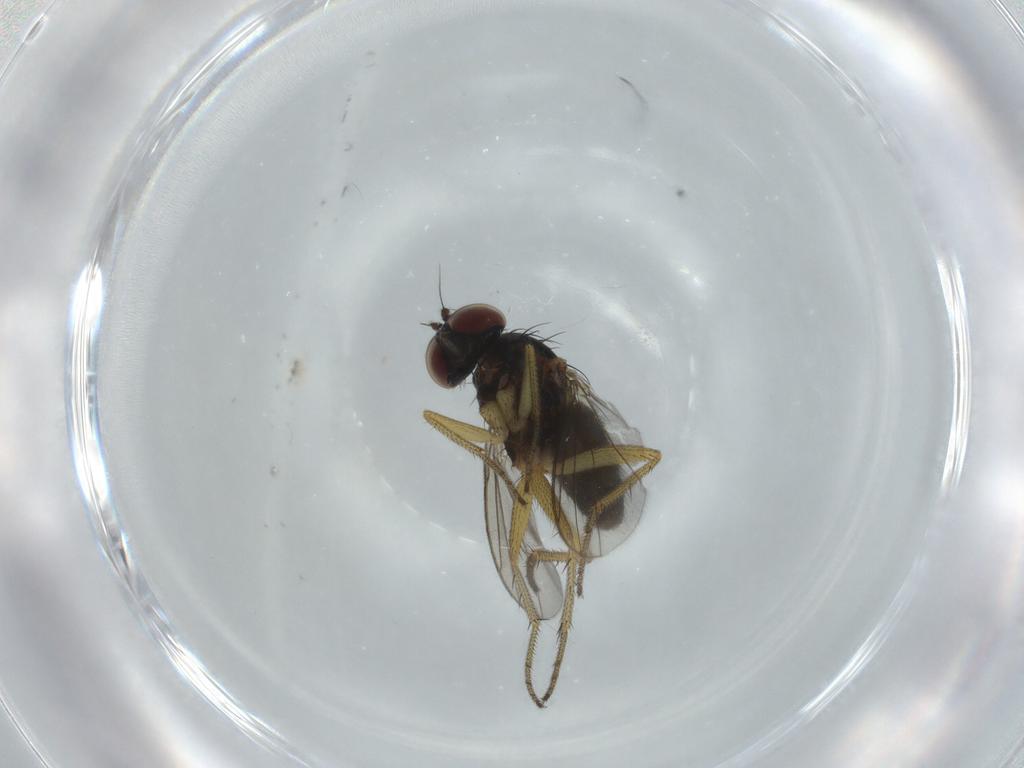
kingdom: Animalia
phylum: Arthropoda
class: Insecta
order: Diptera
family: Dolichopodidae
